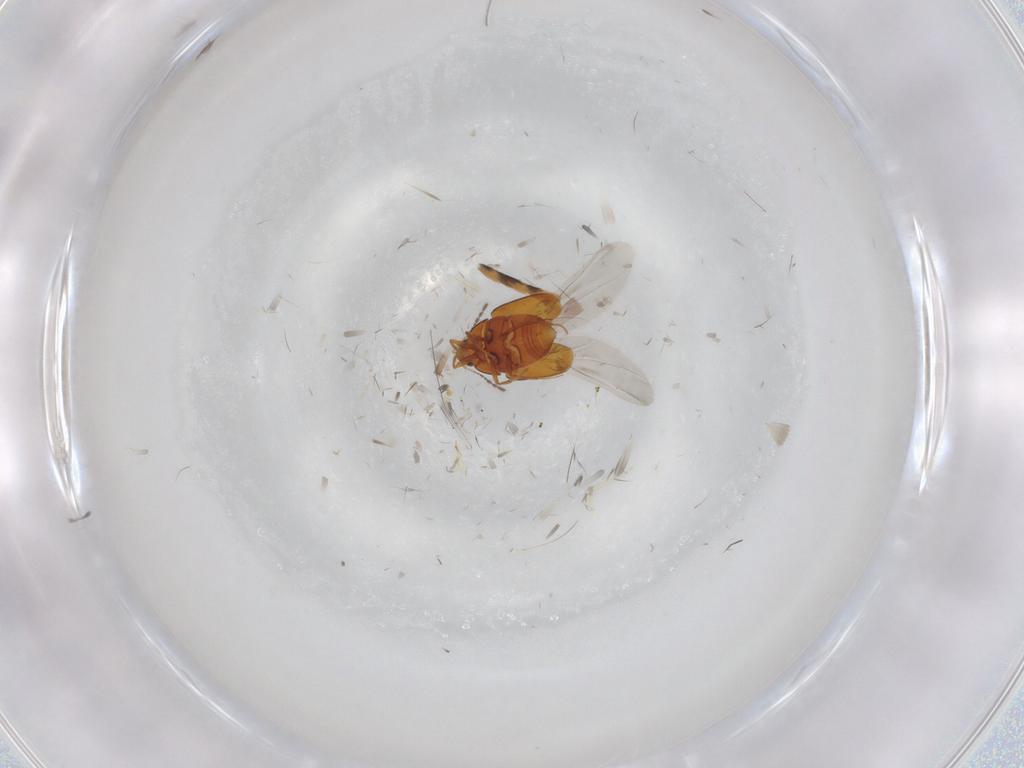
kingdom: Animalia
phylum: Arthropoda
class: Insecta
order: Coleoptera
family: Staphylinidae
